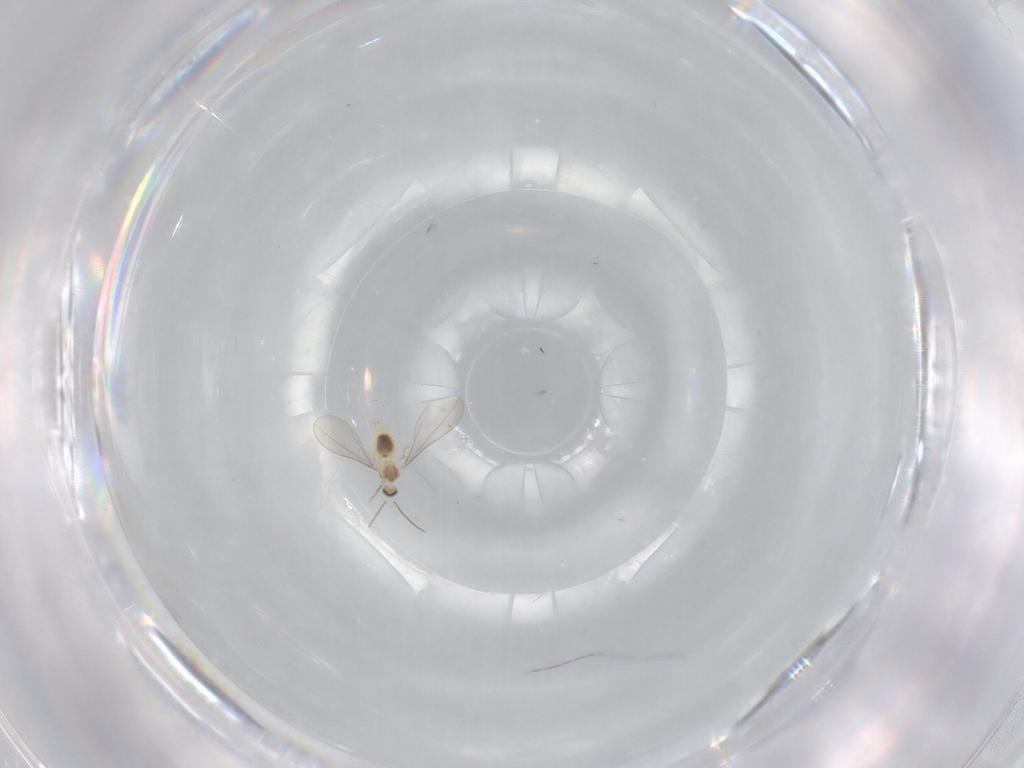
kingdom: Animalia
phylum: Arthropoda
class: Insecta
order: Diptera
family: Cecidomyiidae
